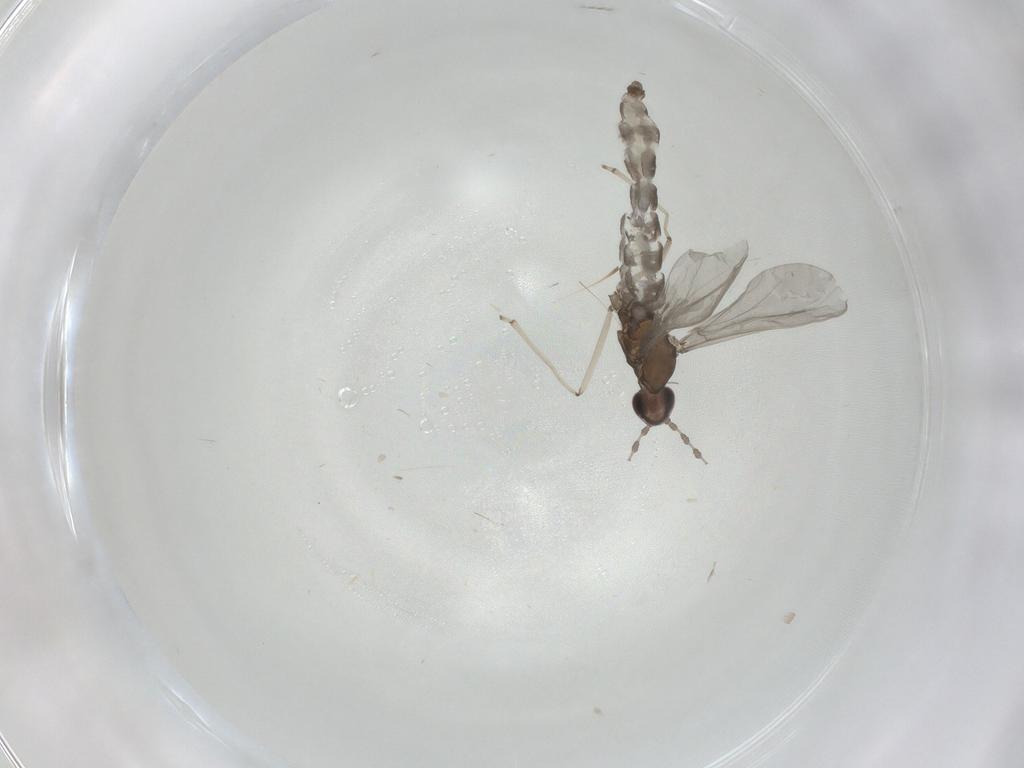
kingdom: Animalia
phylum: Arthropoda
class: Insecta
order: Diptera
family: Cecidomyiidae
